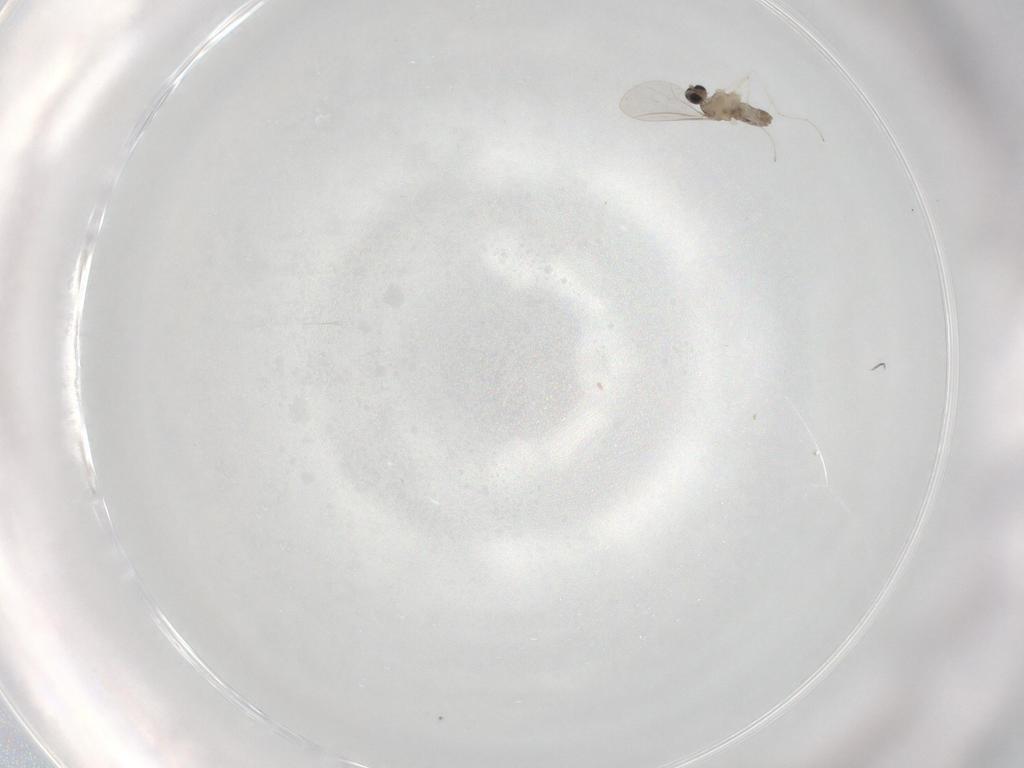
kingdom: Animalia
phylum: Arthropoda
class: Insecta
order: Diptera
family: Cecidomyiidae
